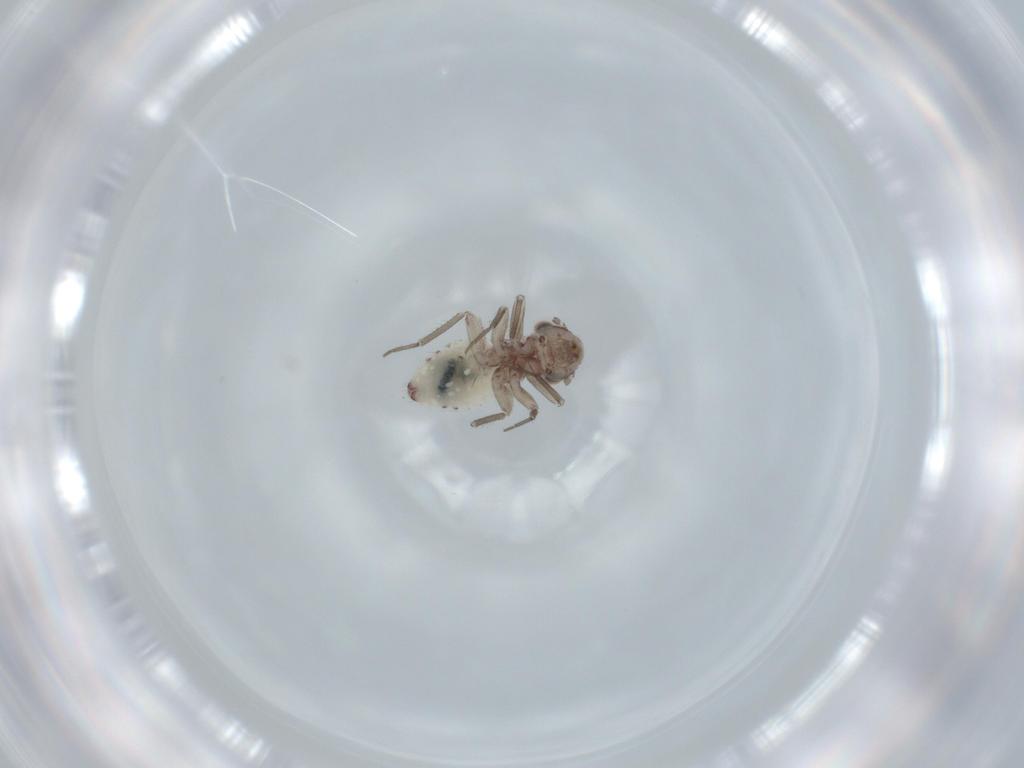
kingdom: Animalia
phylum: Arthropoda
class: Insecta
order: Psocodea
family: Lepidopsocidae
